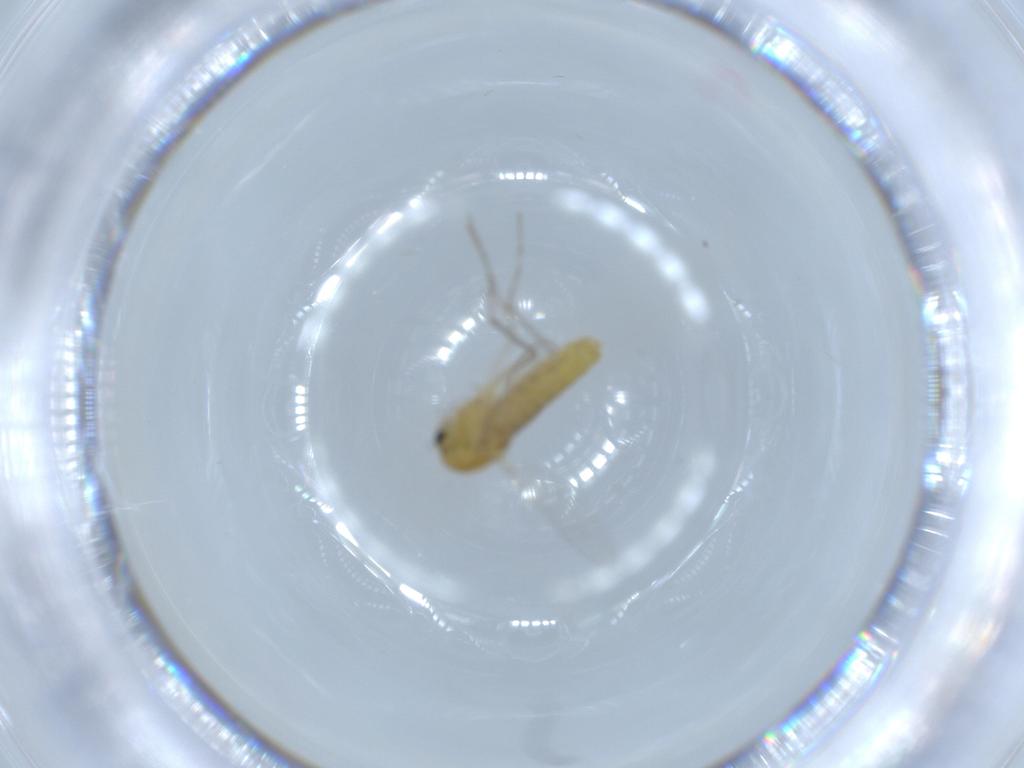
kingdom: Animalia
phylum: Arthropoda
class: Insecta
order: Diptera
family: Chironomidae
